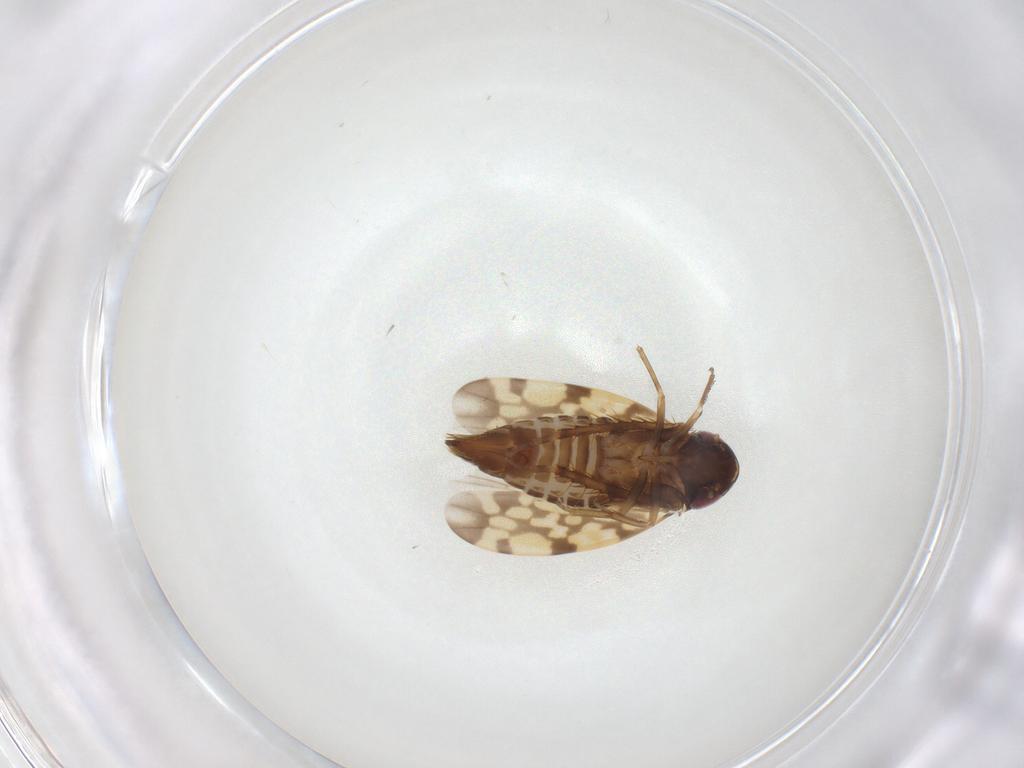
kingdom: Animalia
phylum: Arthropoda
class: Insecta
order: Hemiptera
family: Cicadellidae
